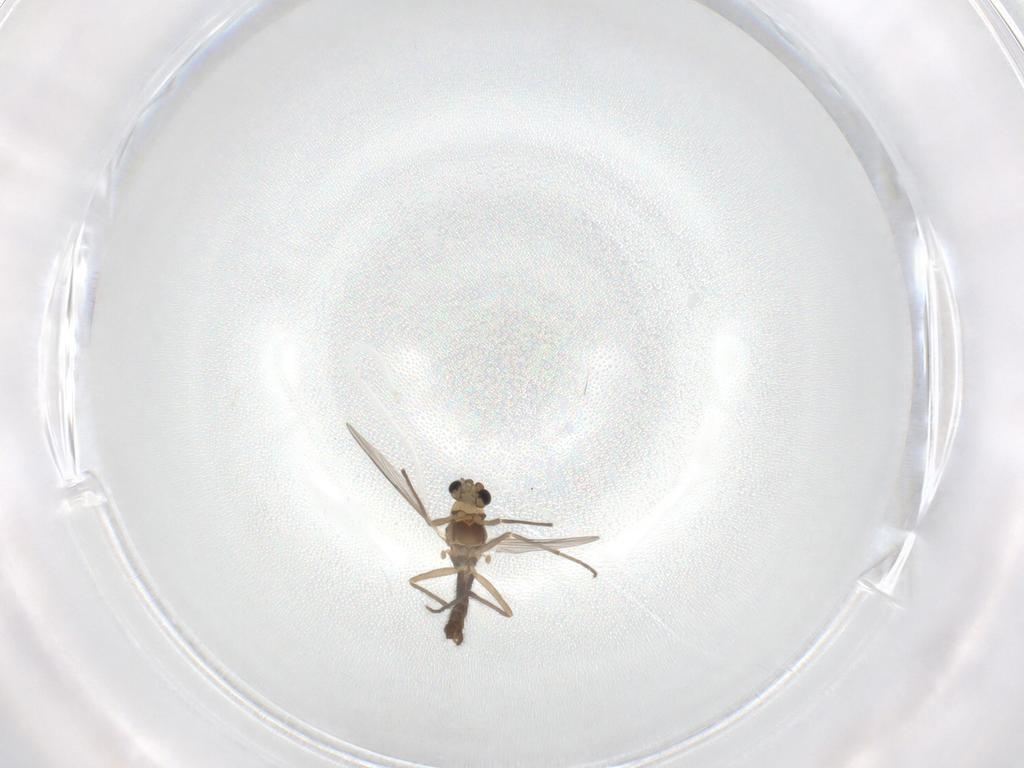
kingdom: Animalia
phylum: Arthropoda
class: Insecta
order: Diptera
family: Chironomidae
